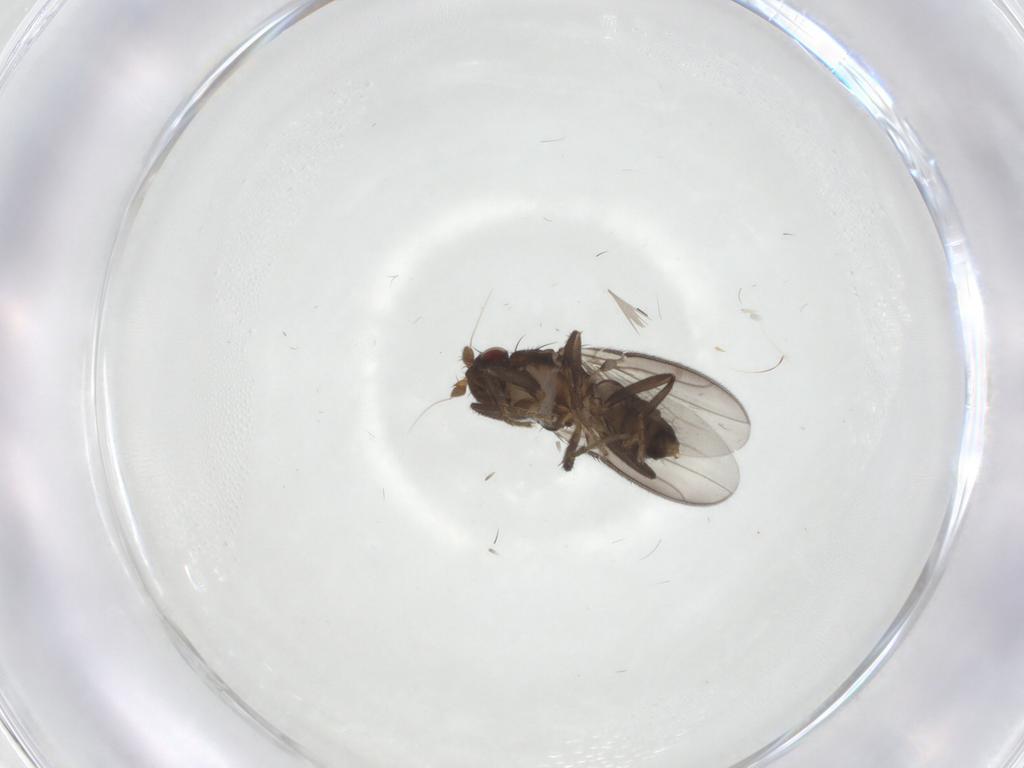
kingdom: Animalia
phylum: Arthropoda
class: Insecta
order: Diptera
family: Sphaeroceridae
